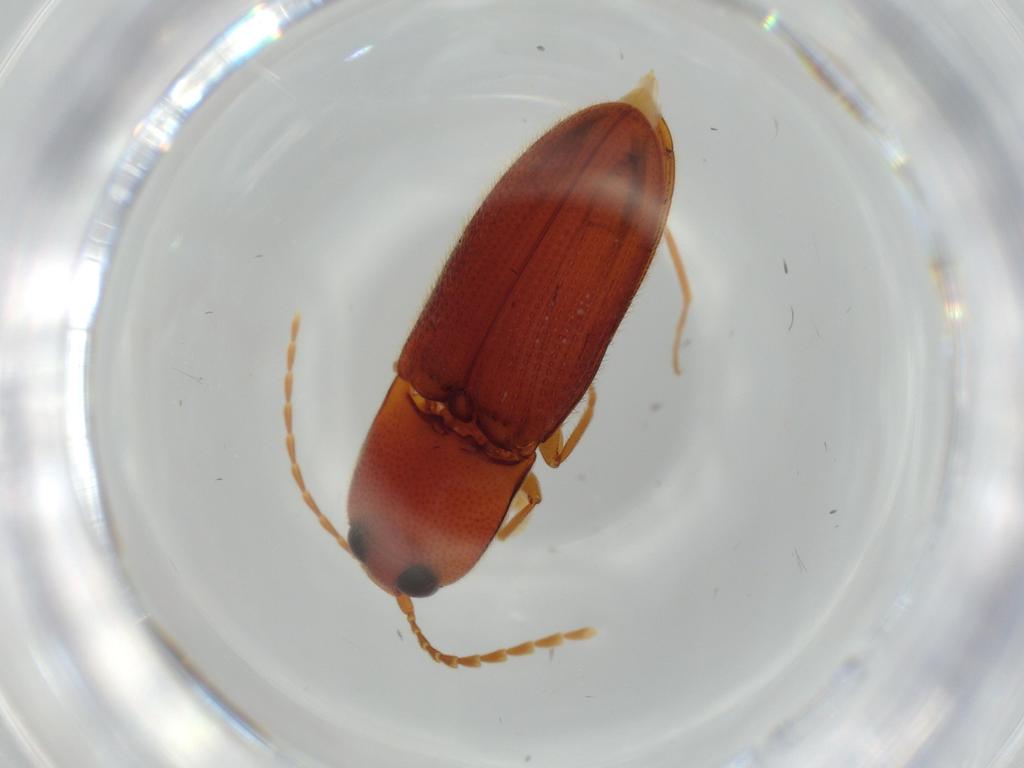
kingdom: Animalia
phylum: Arthropoda
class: Insecta
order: Coleoptera
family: Elateridae
